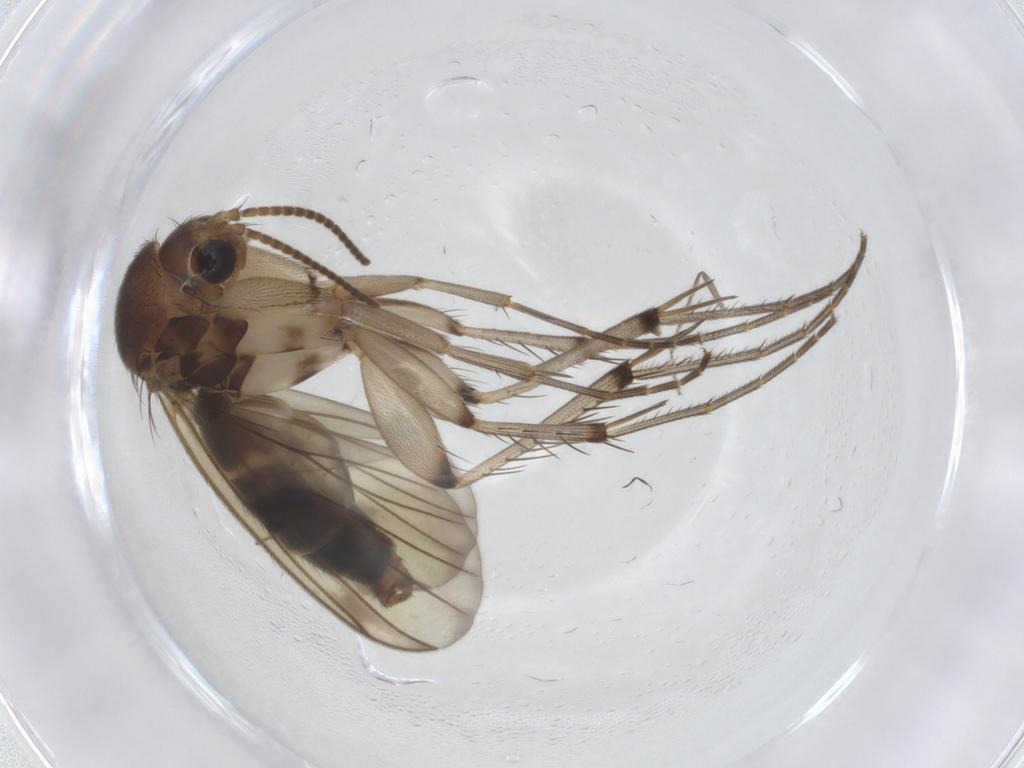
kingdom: Animalia
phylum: Arthropoda
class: Insecta
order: Diptera
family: Mycetophilidae
